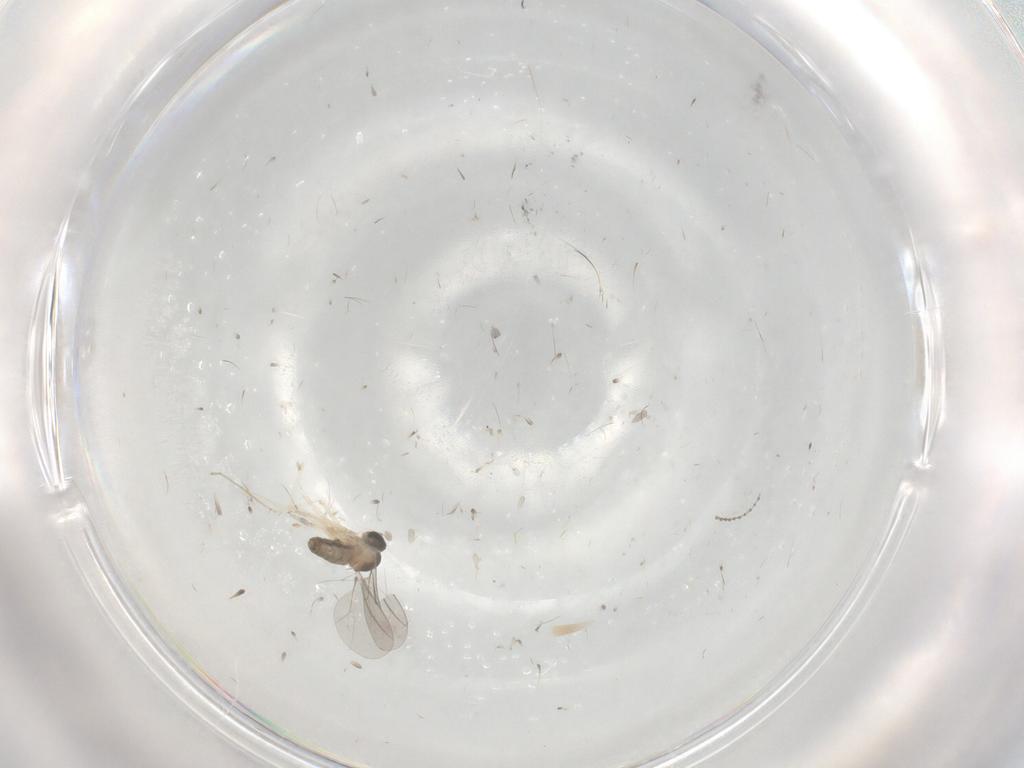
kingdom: Animalia
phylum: Arthropoda
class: Insecta
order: Diptera
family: Cecidomyiidae
